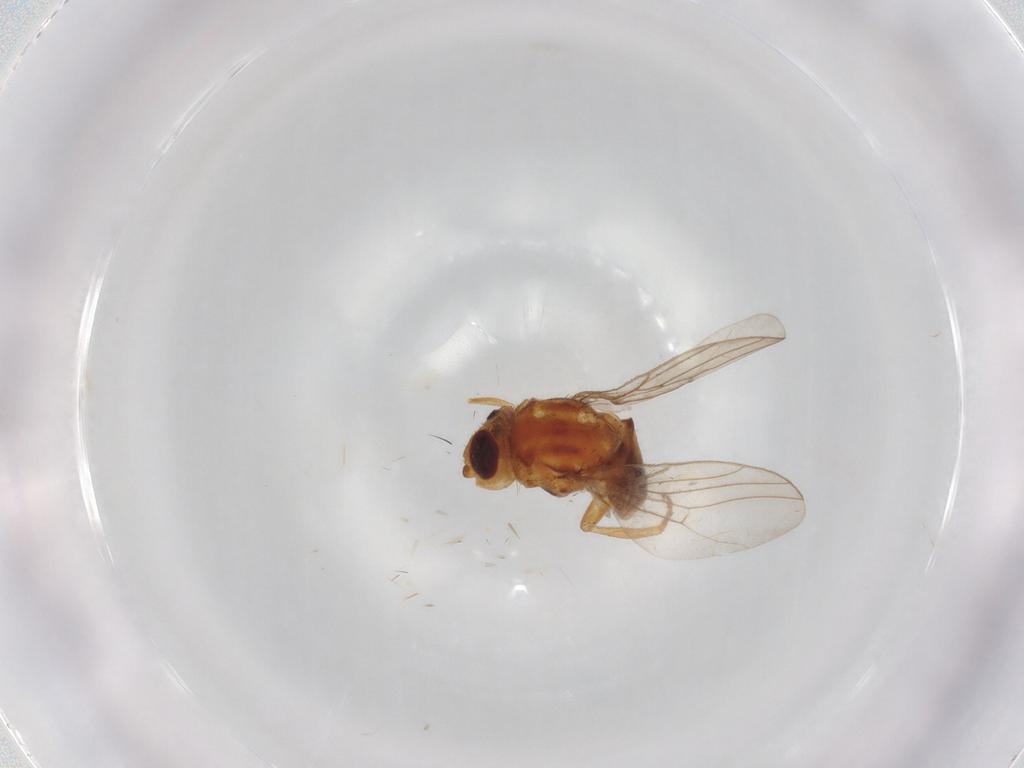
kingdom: Animalia
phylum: Arthropoda
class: Insecta
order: Diptera
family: Chloropidae
